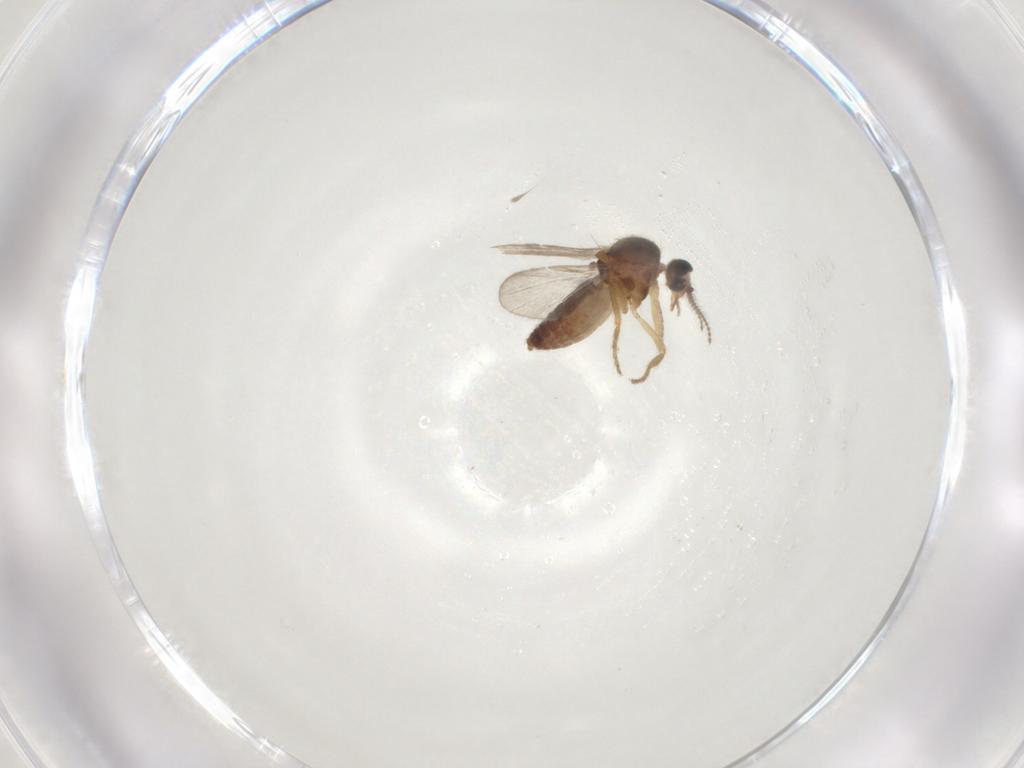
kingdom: Animalia
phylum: Arthropoda
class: Insecta
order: Diptera
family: Ceratopogonidae
